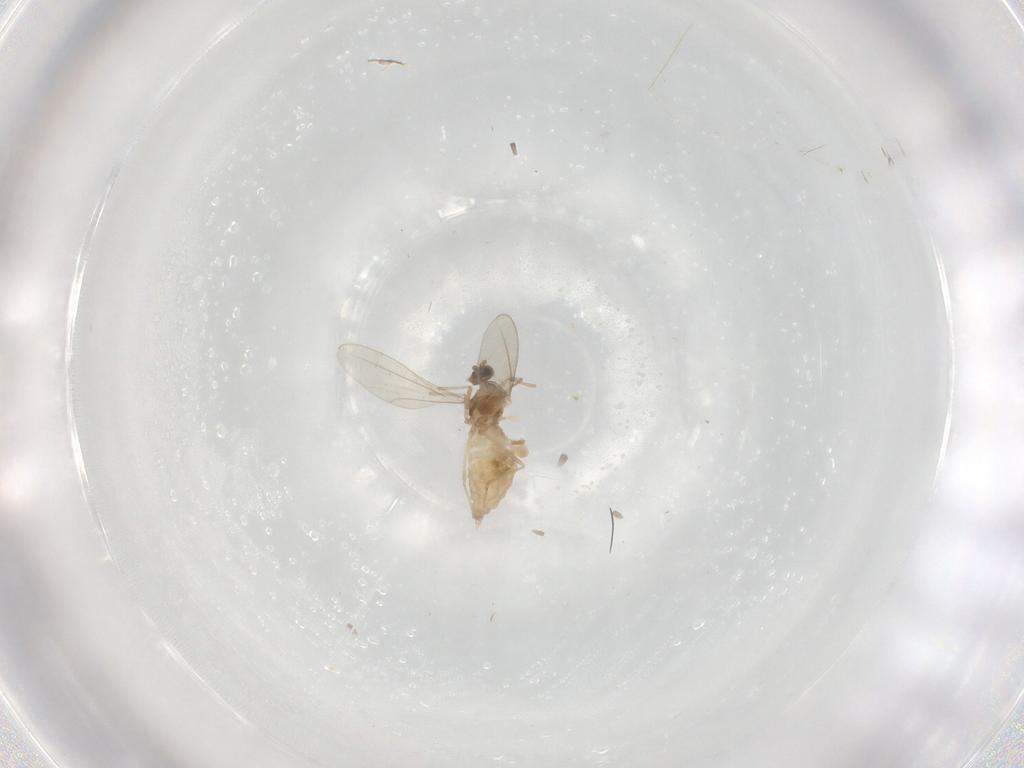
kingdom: Animalia
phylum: Arthropoda
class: Insecta
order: Diptera
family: Cecidomyiidae
